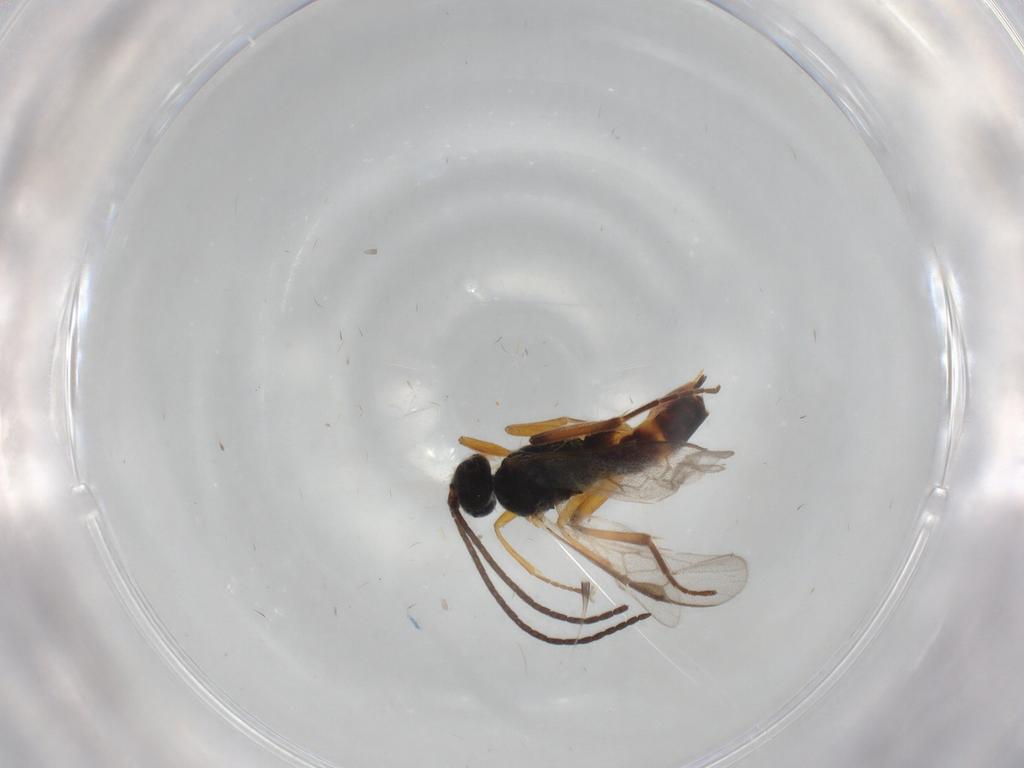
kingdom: Animalia
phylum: Arthropoda
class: Insecta
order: Hymenoptera
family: Braconidae
